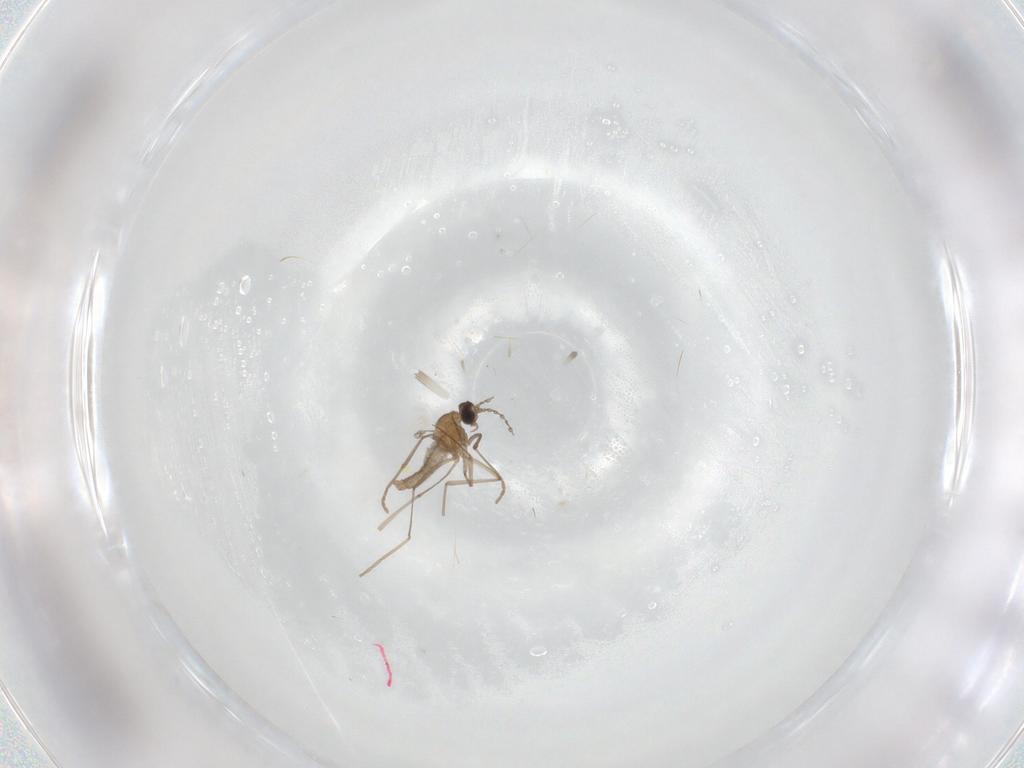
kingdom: Animalia
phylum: Arthropoda
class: Insecta
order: Diptera
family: Cecidomyiidae
